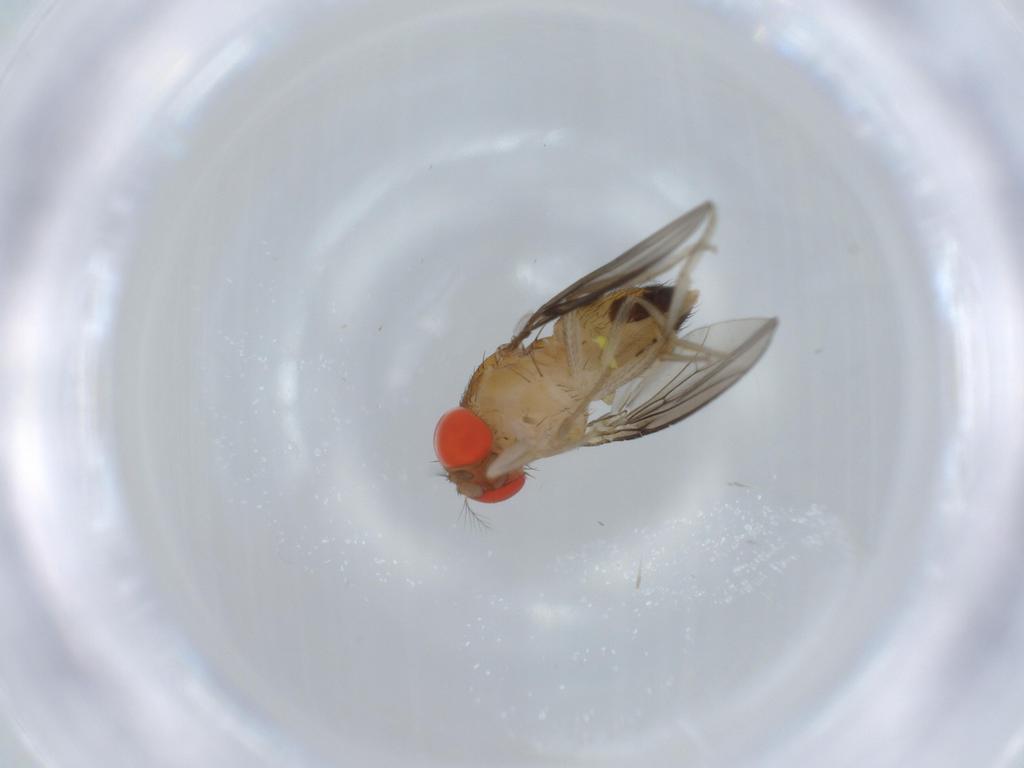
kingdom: Animalia
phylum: Arthropoda
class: Insecta
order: Diptera
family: Drosophilidae
